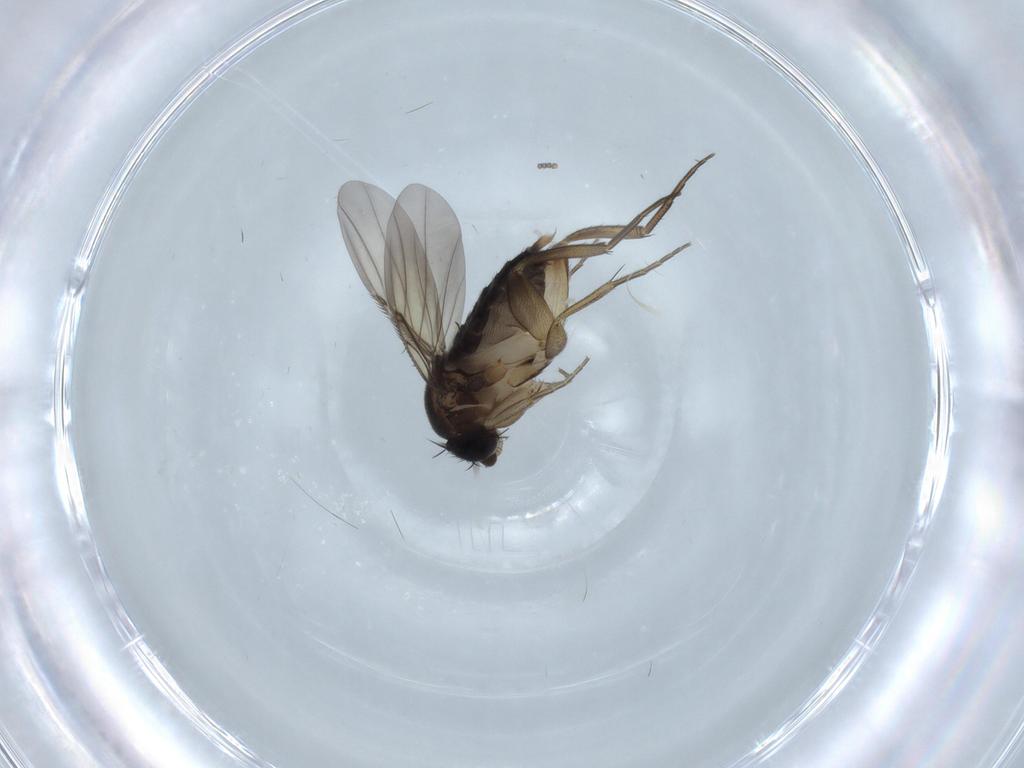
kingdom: Animalia
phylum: Arthropoda
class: Insecta
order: Diptera
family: Phoridae
